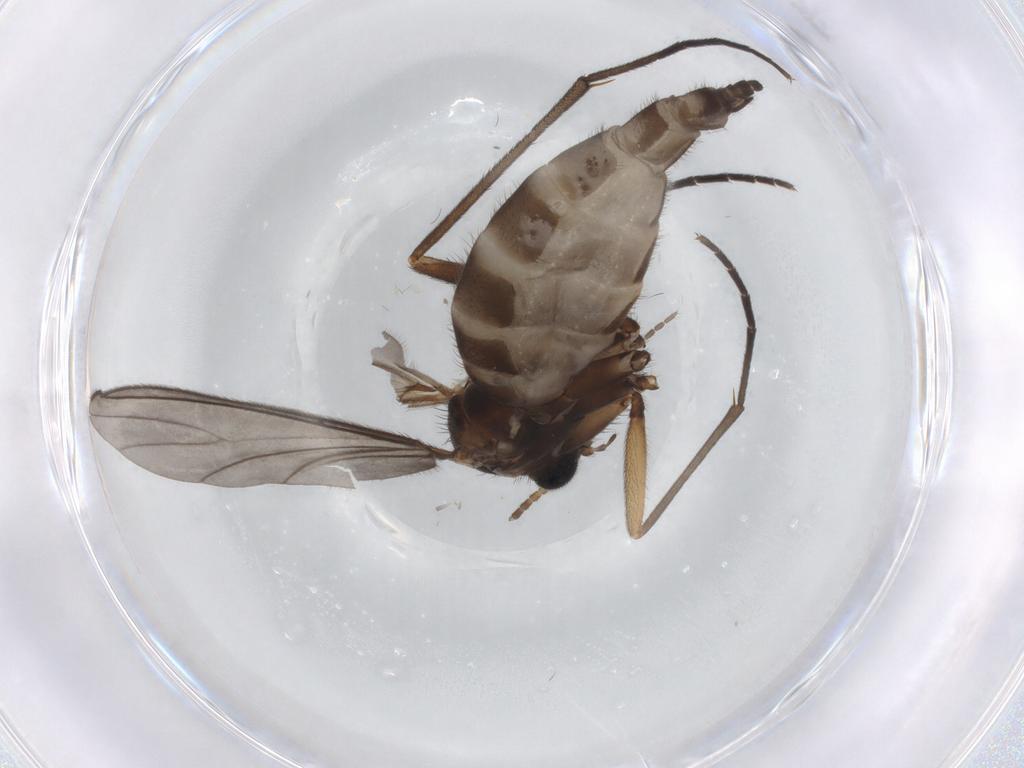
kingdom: Animalia
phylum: Arthropoda
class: Insecta
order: Diptera
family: Sciaridae
